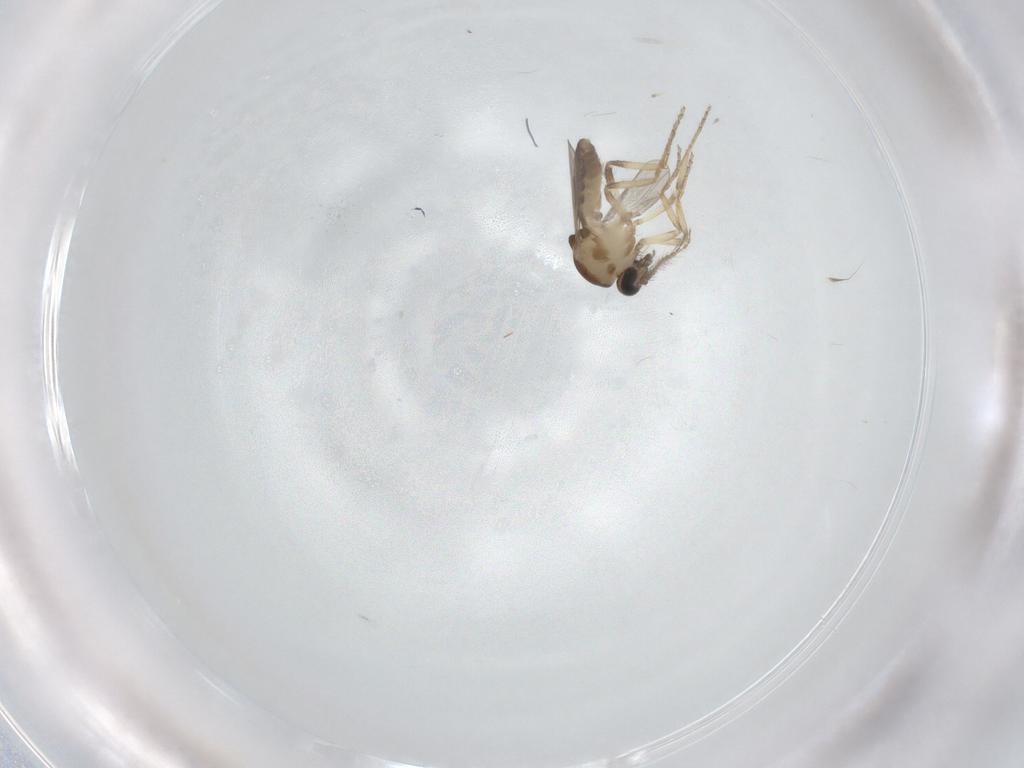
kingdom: Animalia
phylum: Arthropoda
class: Insecta
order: Diptera
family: Ceratopogonidae
